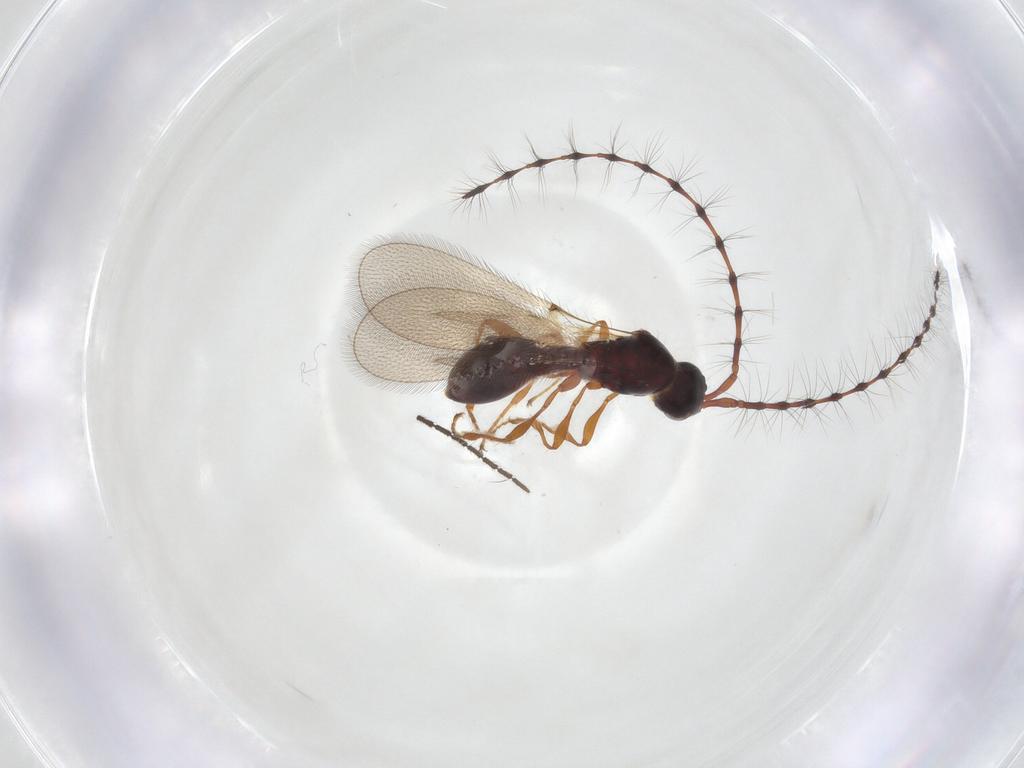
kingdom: Animalia
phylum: Arthropoda
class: Insecta
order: Hymenoptera
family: Diapriidae
